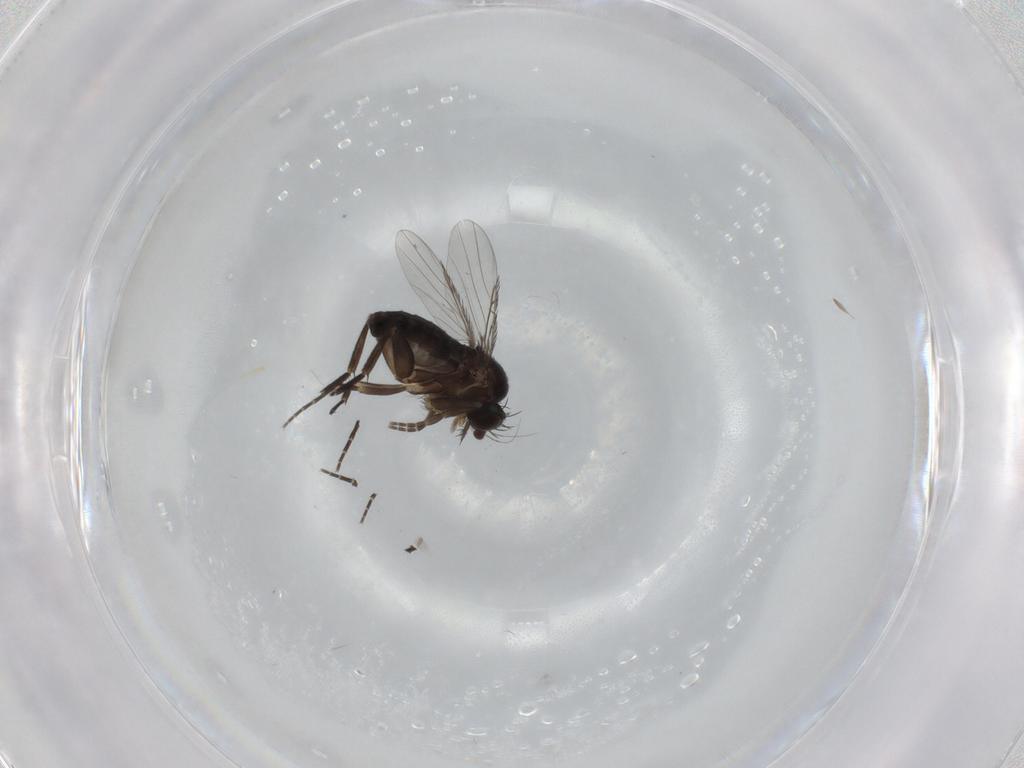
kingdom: Animalia
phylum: Arthropoda
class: Insecta
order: Diptera
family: Phoridae
